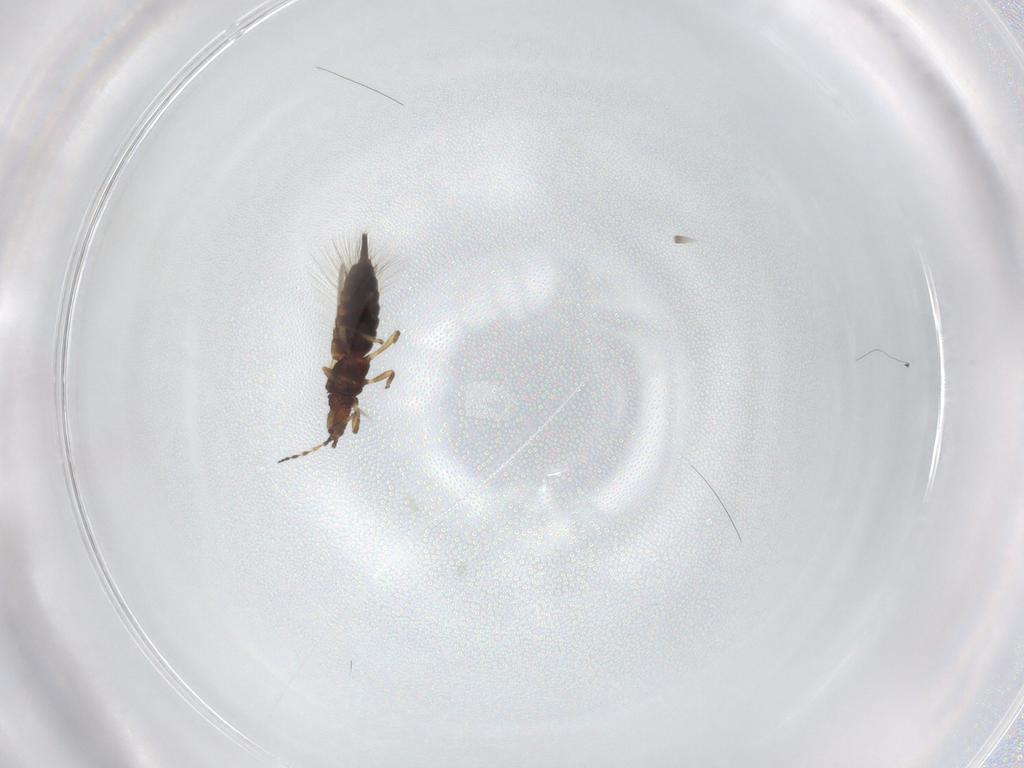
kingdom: Animalia
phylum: Arthropoda
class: Insecta
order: Thysanoptera
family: Phlaeothripidae
